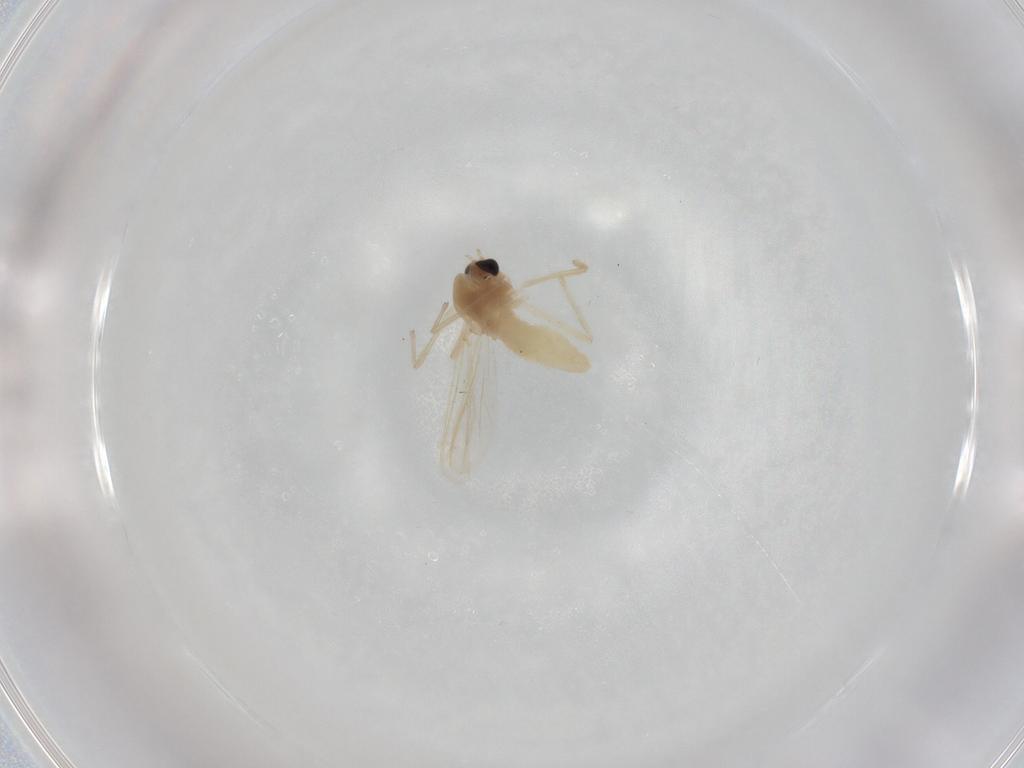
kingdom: Animalia
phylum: Arthropoda
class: Insecta
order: Diptera
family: Chironomidae
